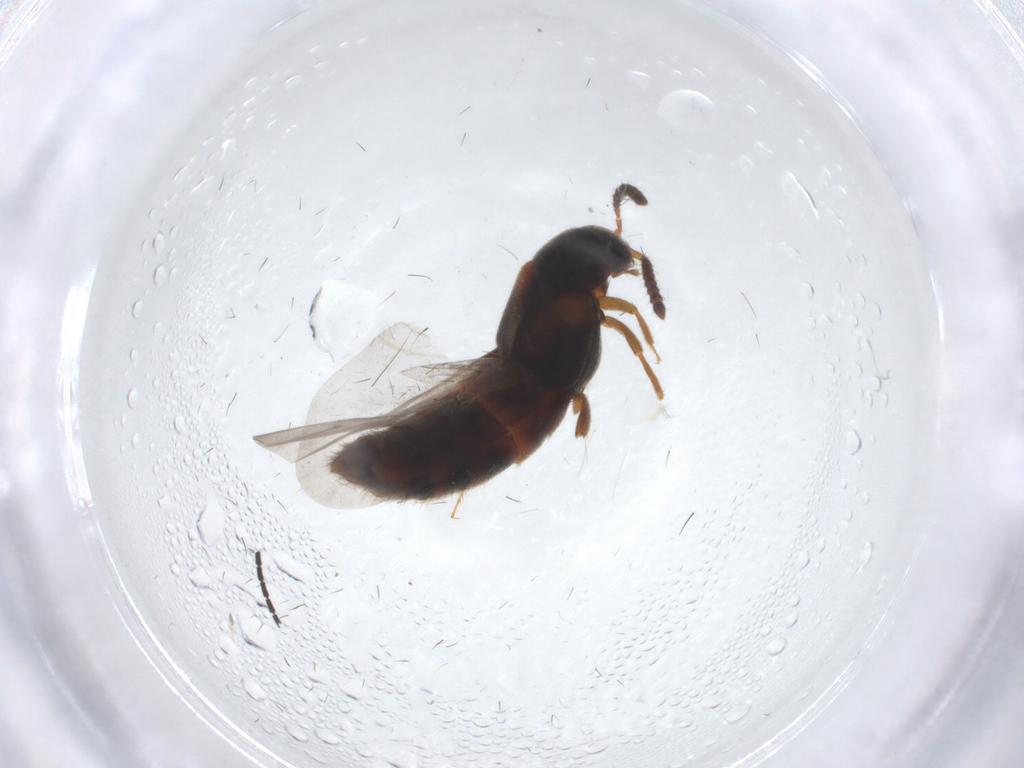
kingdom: Animalia
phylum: Arthropoda
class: Insecta
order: Coleoptera
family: Staphylinidae
